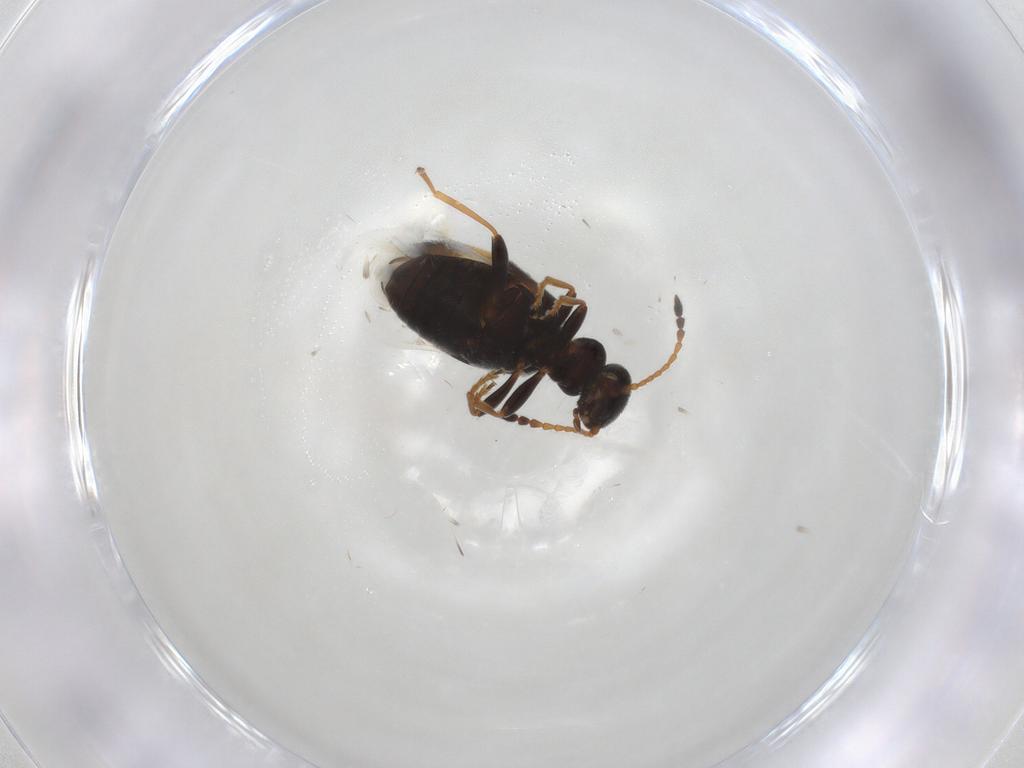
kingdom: Animalia
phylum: Arthropoda
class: Insecta
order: Coleoptera
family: Anthicidae
